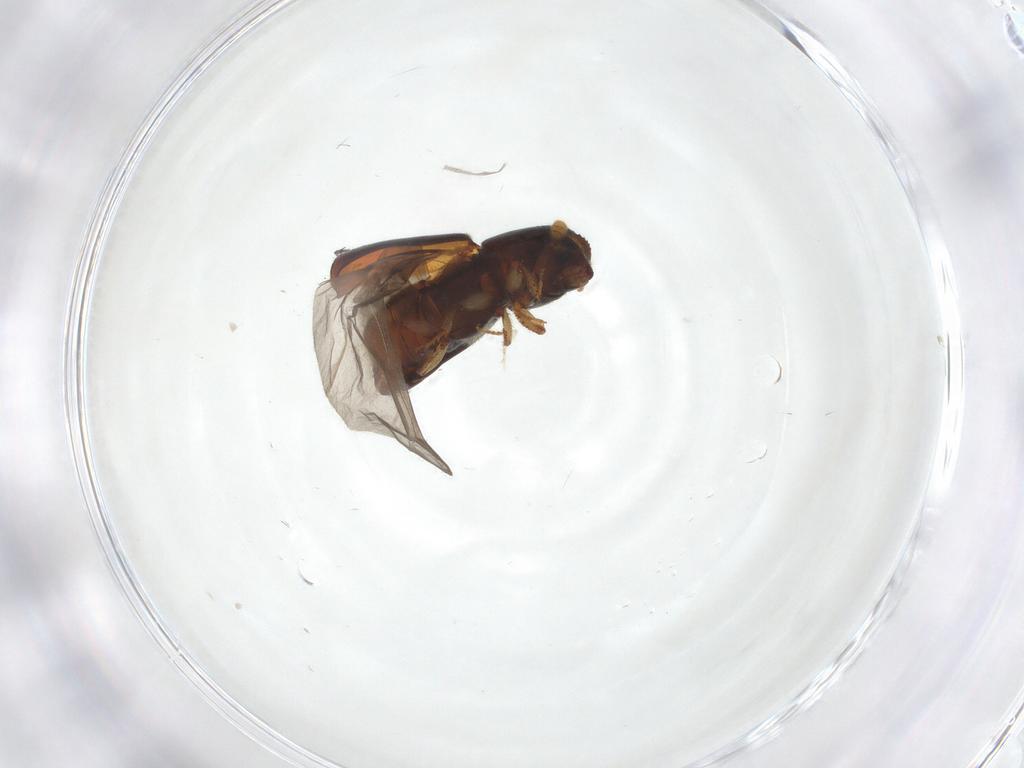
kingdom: Animalia
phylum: Arthropoda
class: Insecta
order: Coleoptera
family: Curculionidae
